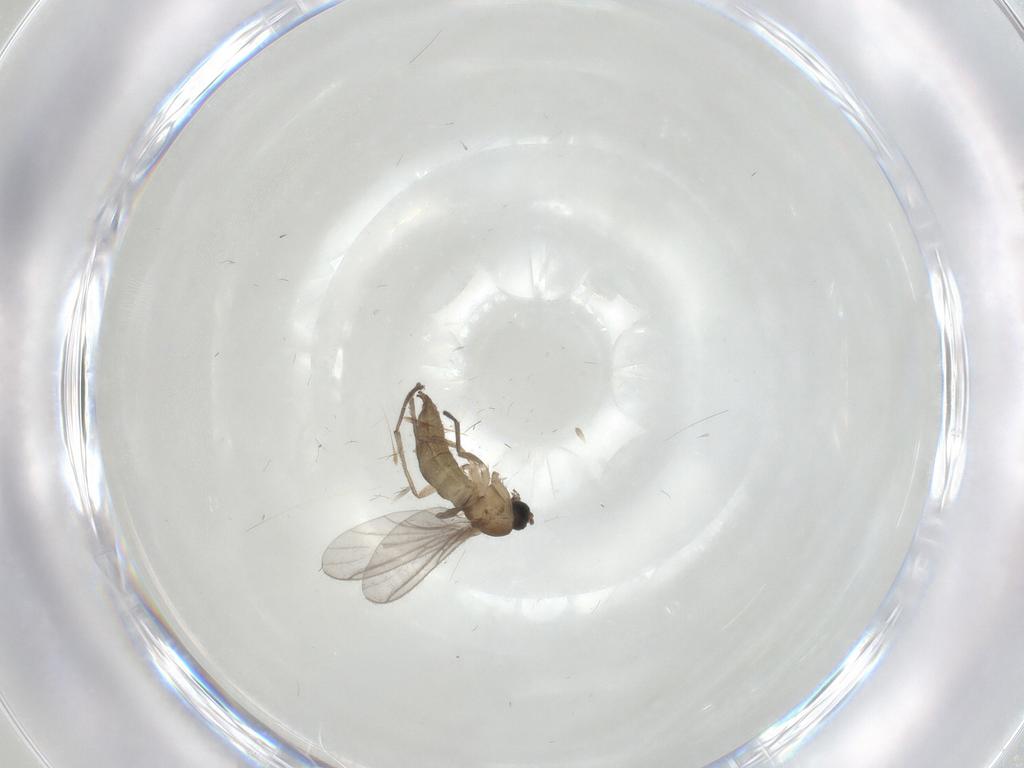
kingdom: Animalia
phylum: Arthropoda
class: Insecta
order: Diptera
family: Sciaridae
